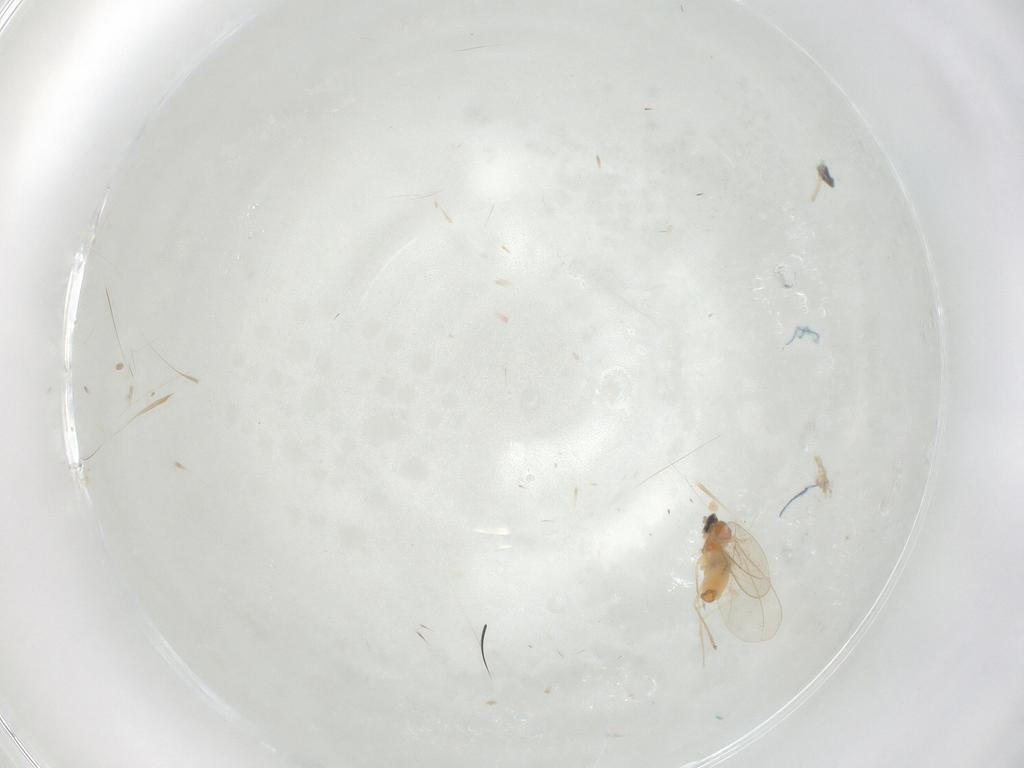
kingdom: Animalia
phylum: Arthropoda
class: Insecta
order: Diptera
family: Cecidomyiidae
